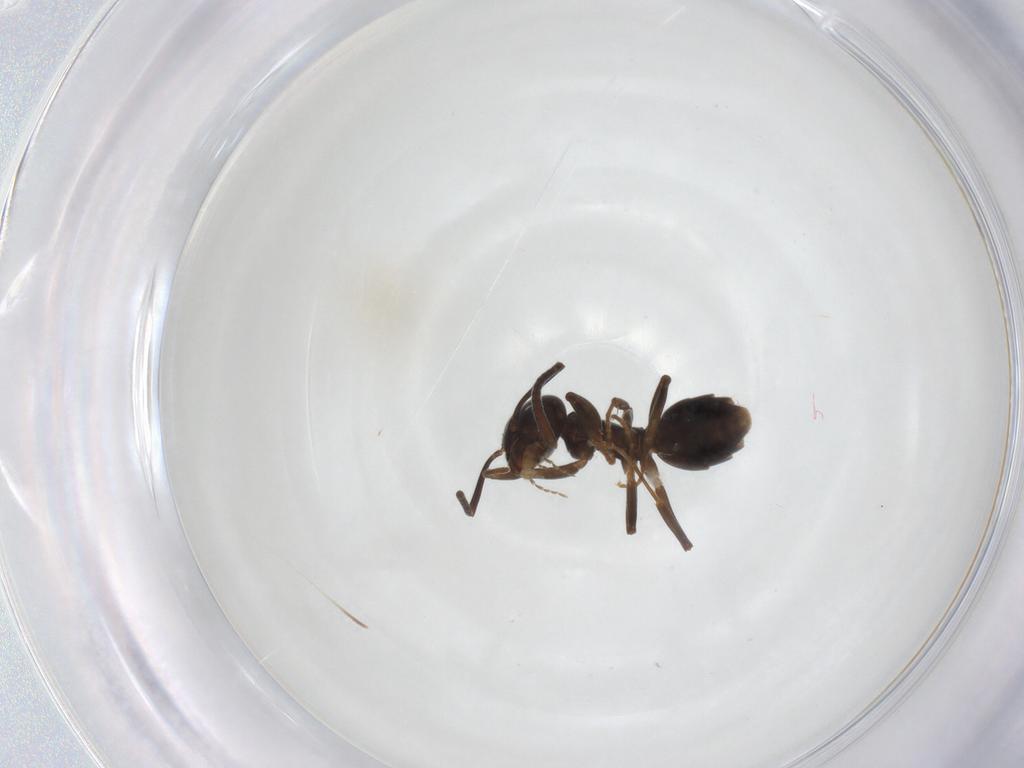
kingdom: Animalia
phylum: Arthropoda
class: Insecta
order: Hymenoptera
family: Formicidae
